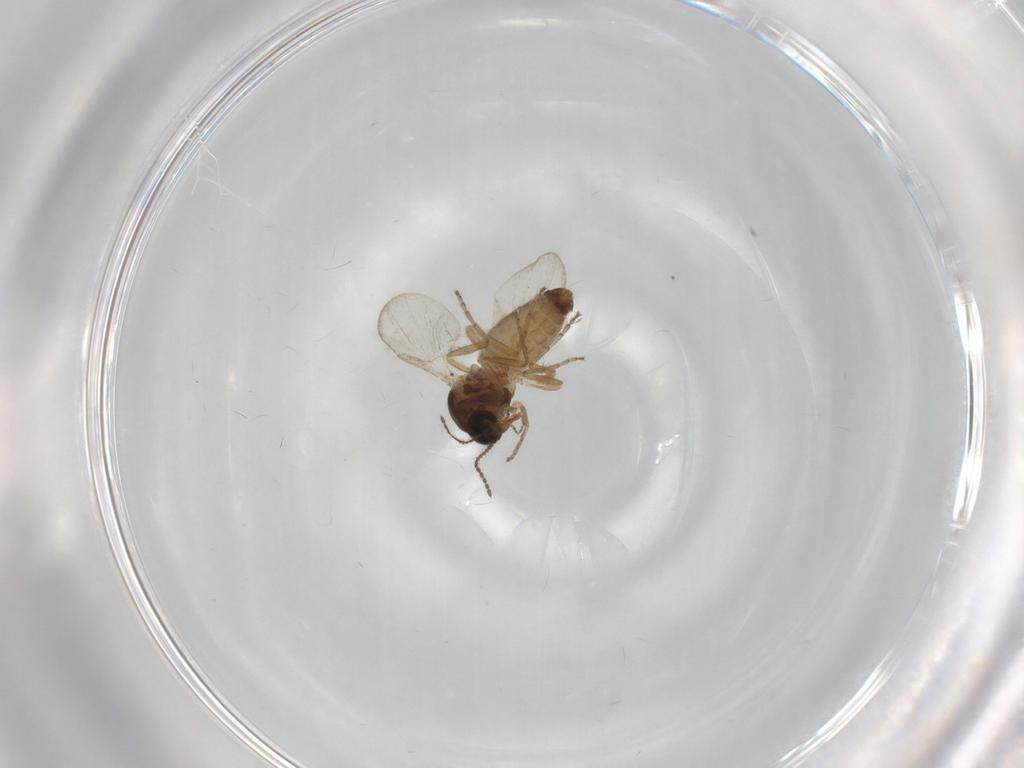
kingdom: Animalia
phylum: Arthropoda
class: Insecta
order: Diptera
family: Ceratopogonidae
